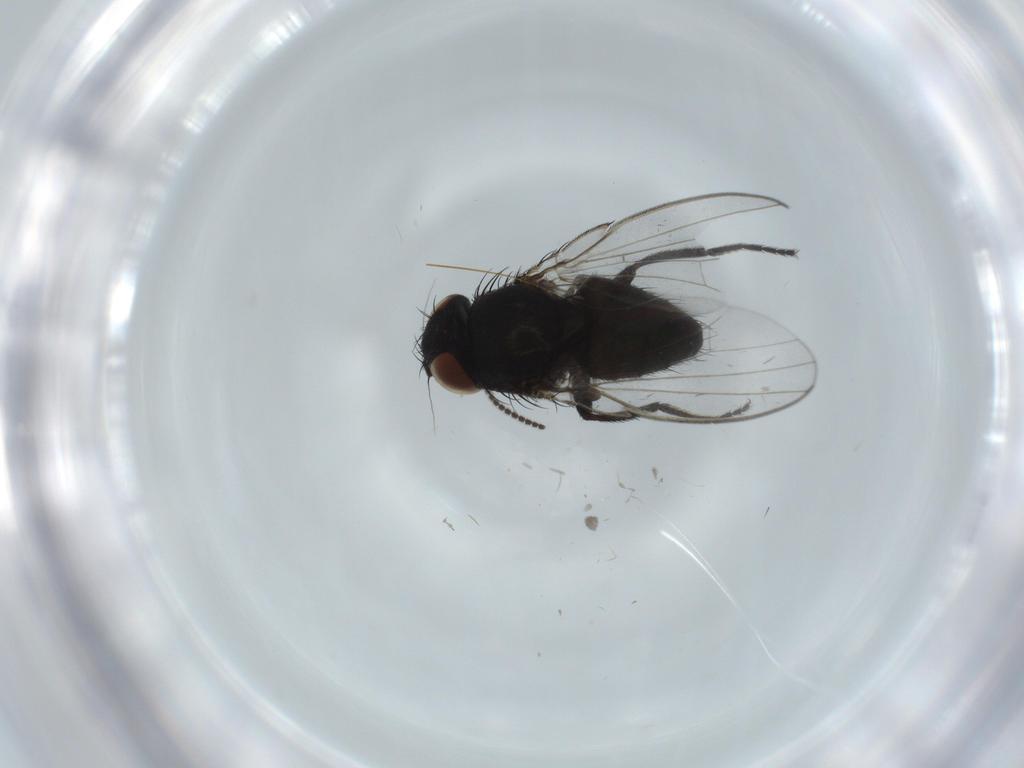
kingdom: Animalia
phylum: Arthropoda
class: Insecta
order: Diptera
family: Milichiidae
